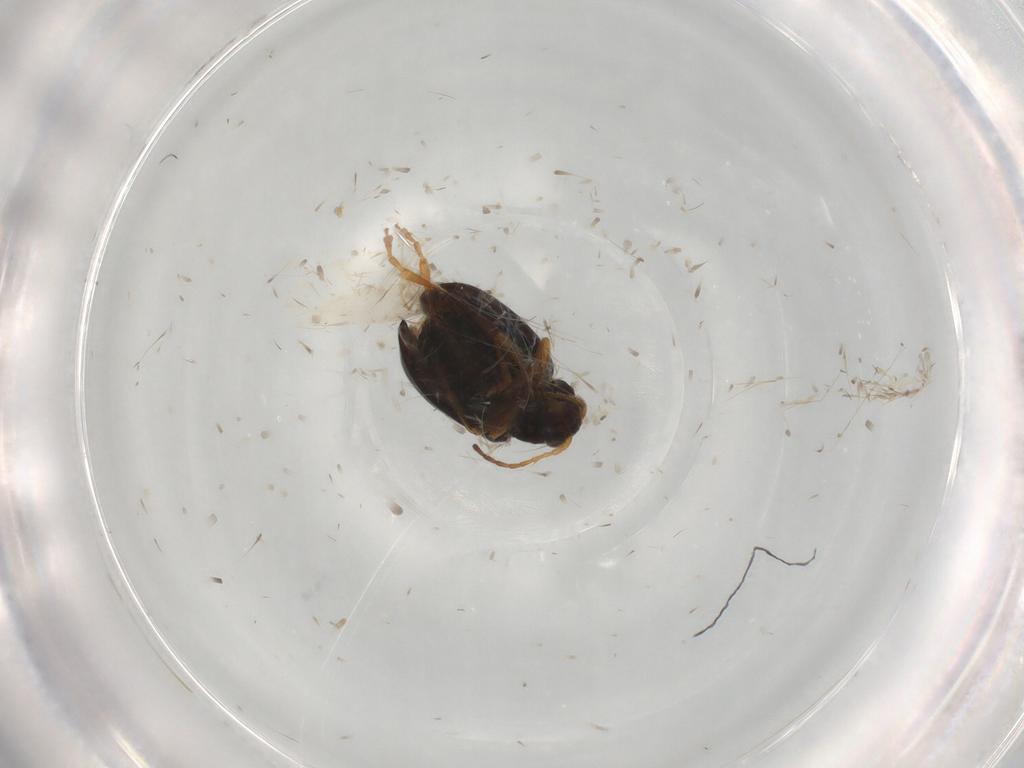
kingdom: Animalia
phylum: Arthropoda
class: Insecta
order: Coleoptera
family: Chrysomelidae
